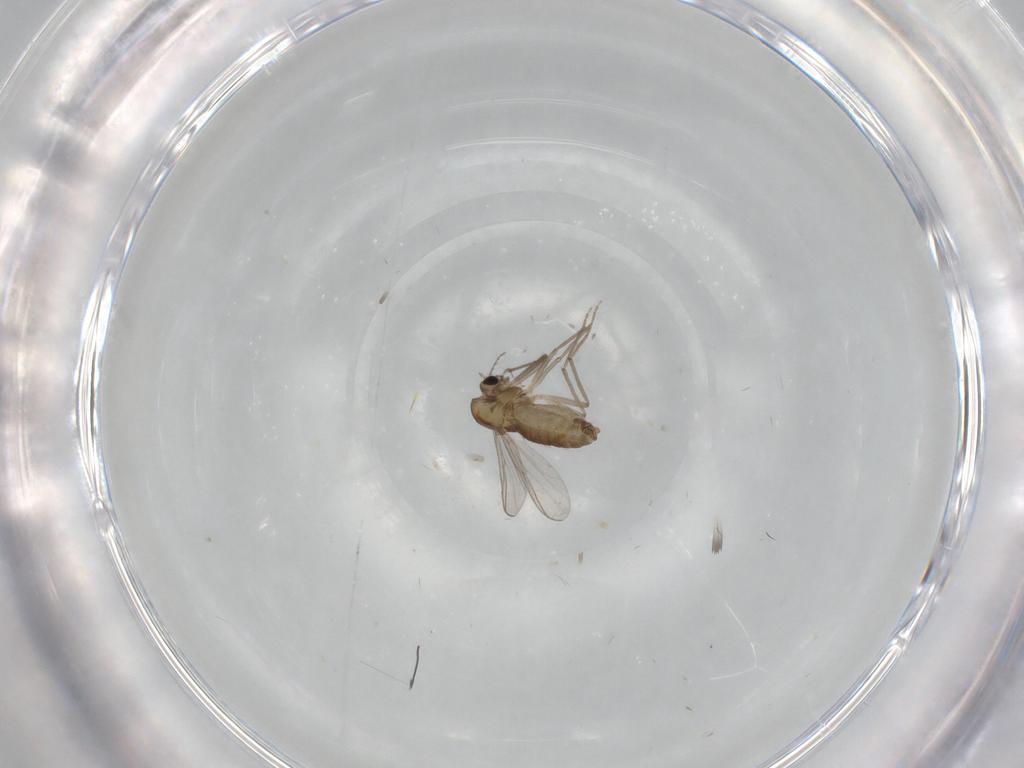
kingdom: Animalia
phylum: Arthropoda
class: Insecta
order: Diptera
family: Chironomidae
